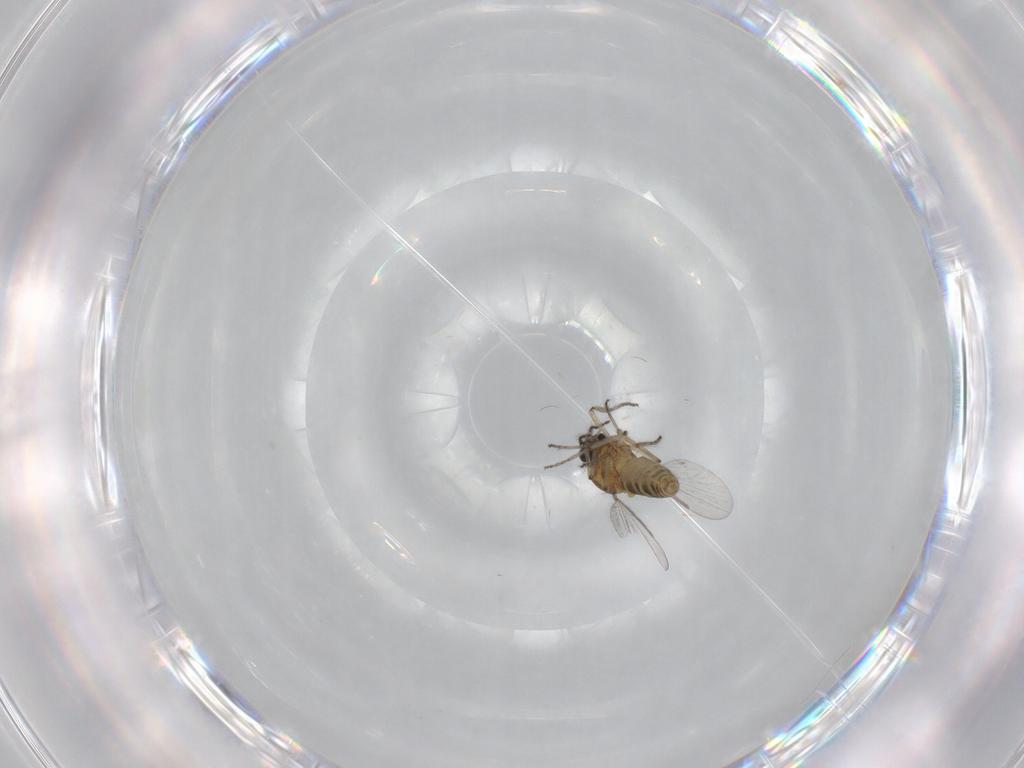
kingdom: Animalia
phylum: Arthropoda
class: Insecta
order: Diptera
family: Ceratopogonidae
